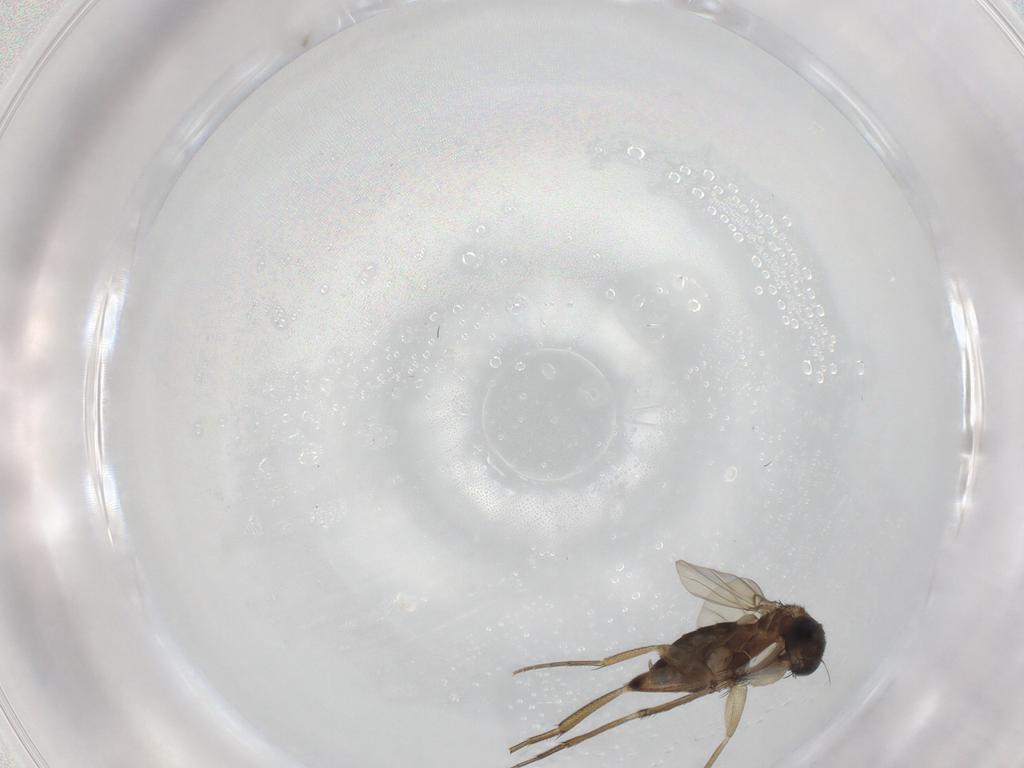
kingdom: Animalia
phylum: Arthropoda
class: Insecta
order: Diptera
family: Phoridae
